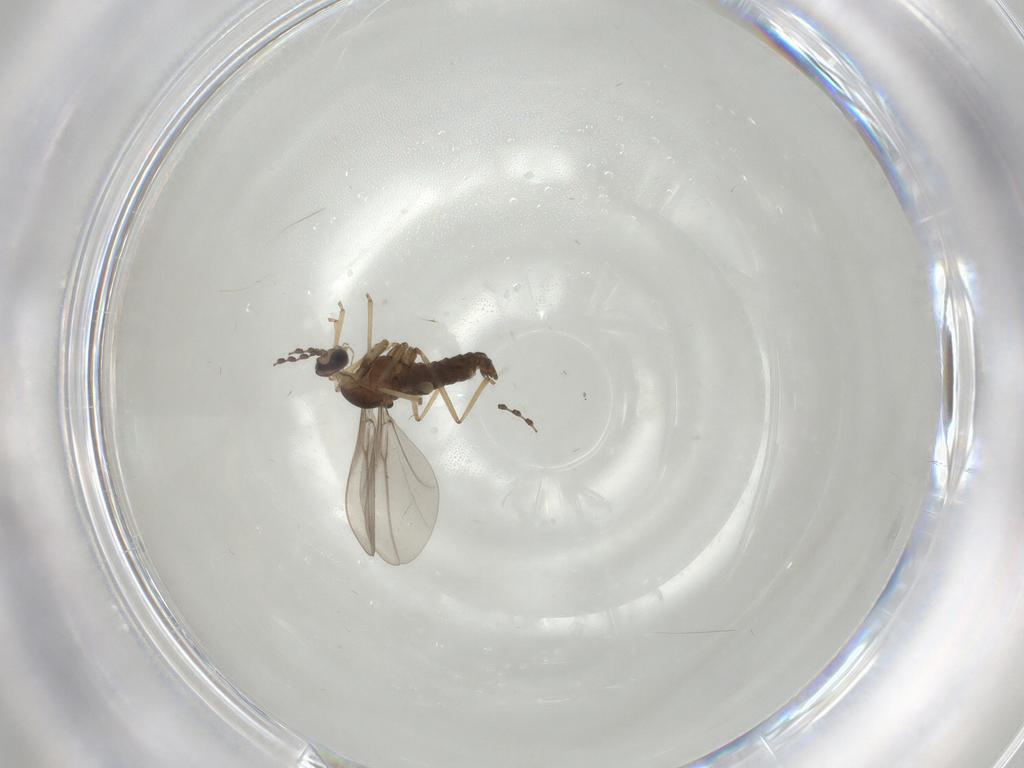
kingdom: Animalia
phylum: Arthropoda
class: Insecta
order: Diptera
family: Cecidomyiidae
